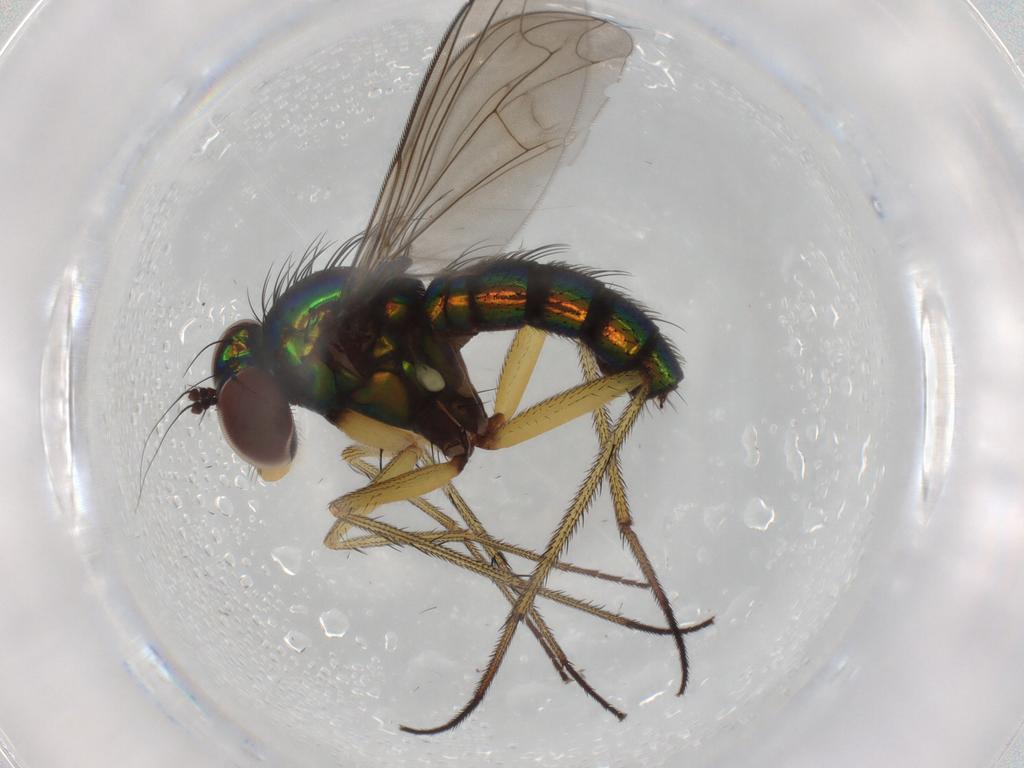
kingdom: Animalia
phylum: Arthropoda
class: Insecta
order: Diptera
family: Dolichopodidae
